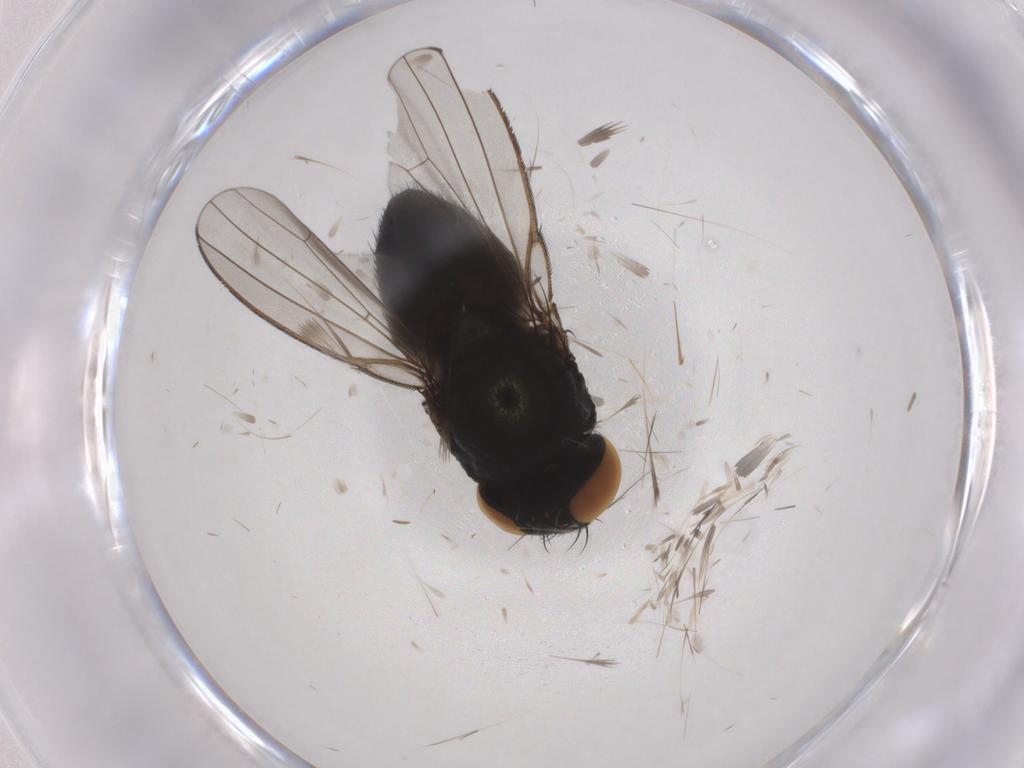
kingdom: Animalia
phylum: Arthropoda
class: Insecta
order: Diptera
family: Milichiidae
